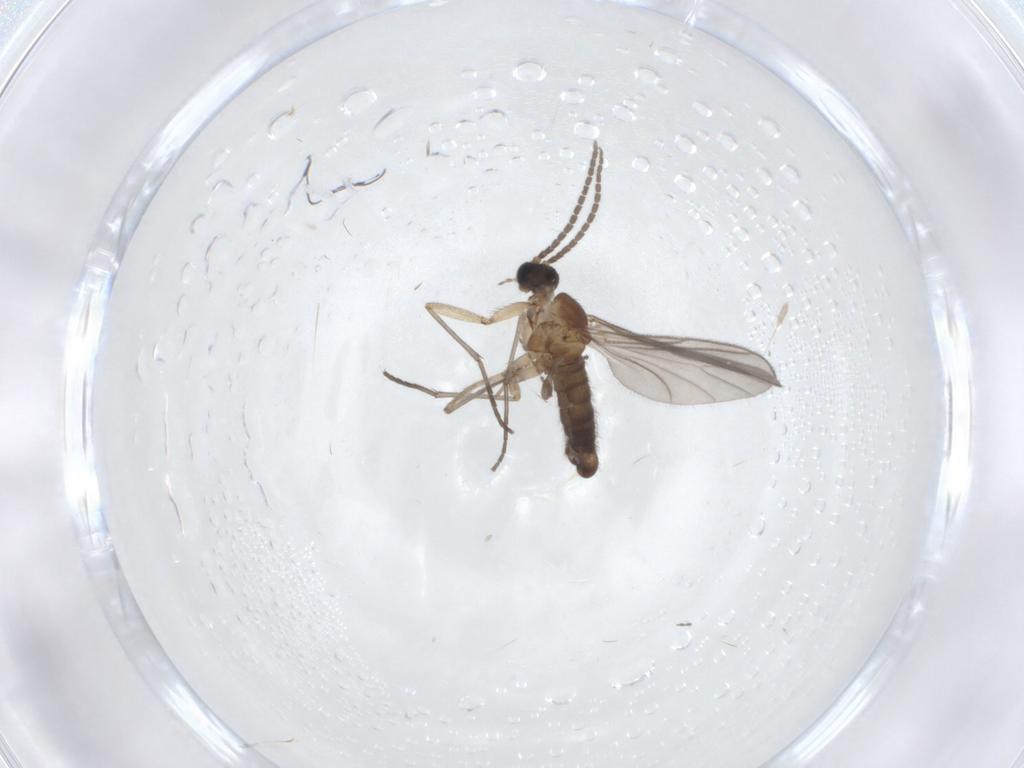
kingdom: Animalia
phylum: Arthropoda
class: Insecta
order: Diptera
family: Sciaridae
